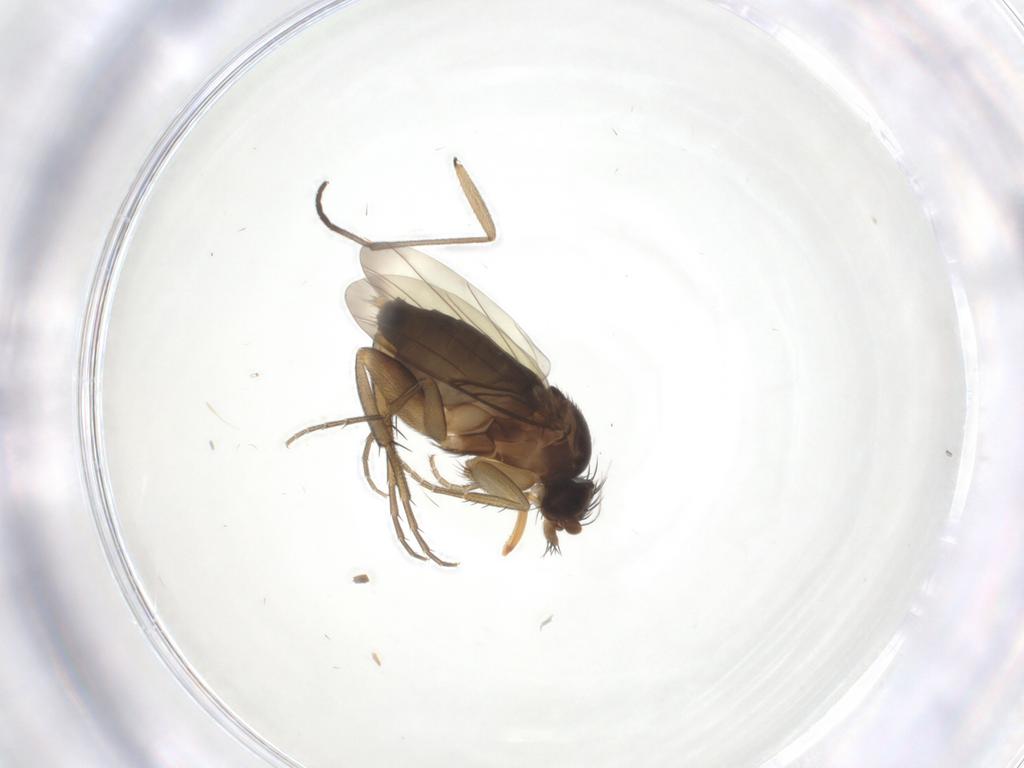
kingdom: Animalia
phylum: Arthropoda
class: Insecta
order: Diptera
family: Phoridae
